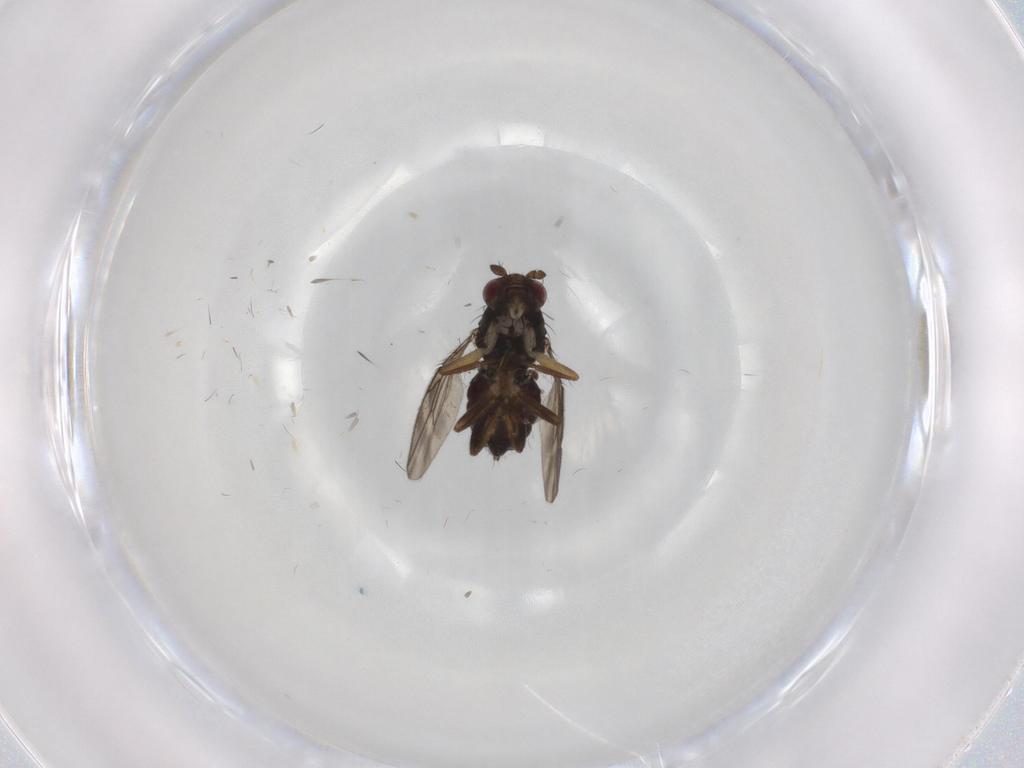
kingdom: Animalia
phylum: Arthropoda
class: Insecta
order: Diptera
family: Sphaeroceridae
